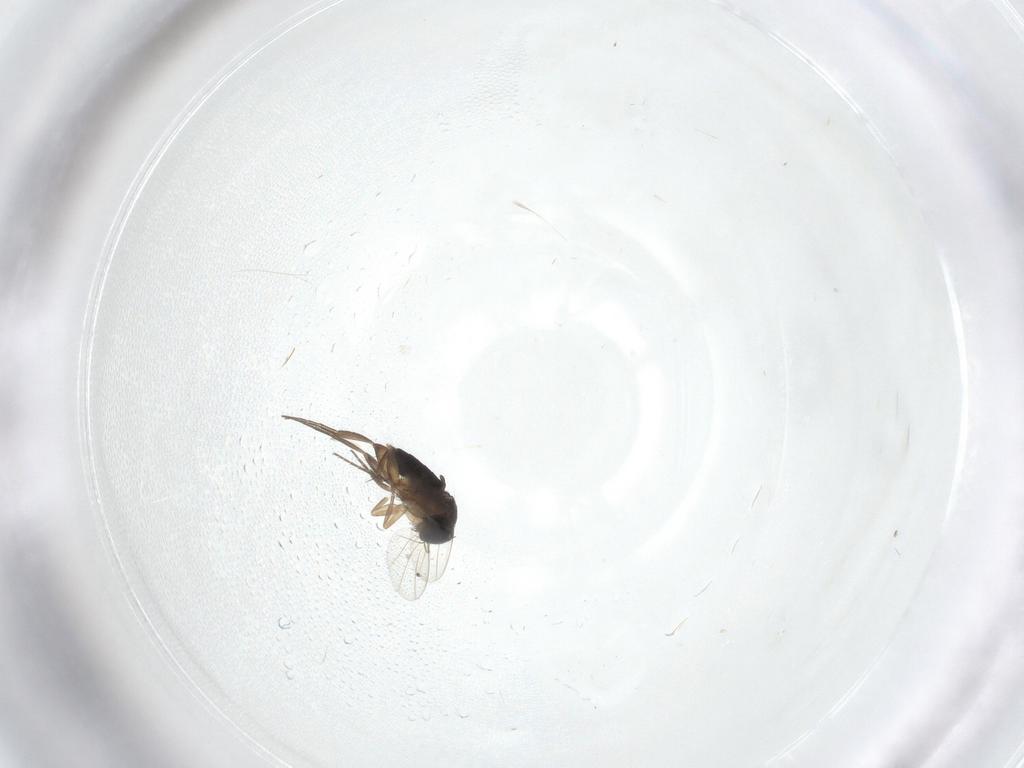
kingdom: Animalia
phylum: Arthropoda
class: Insecta
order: Diptera
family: Phoridae
